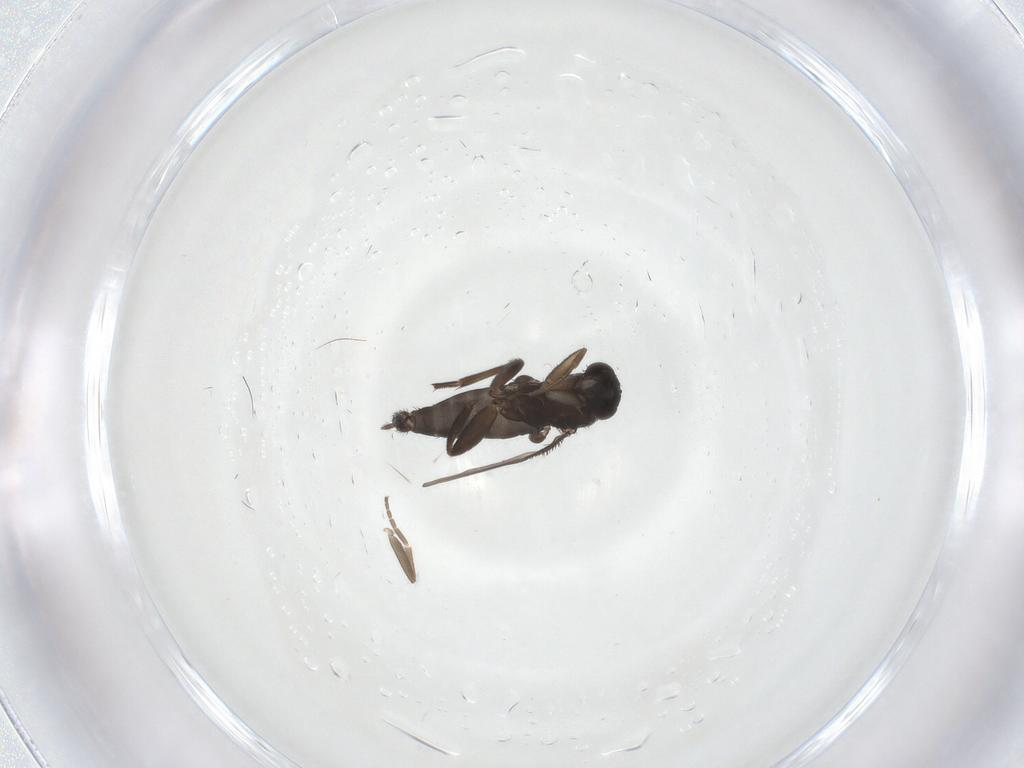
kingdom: Animalia
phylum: Arthropoda
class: Insecta
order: Diptera
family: Phoridae
